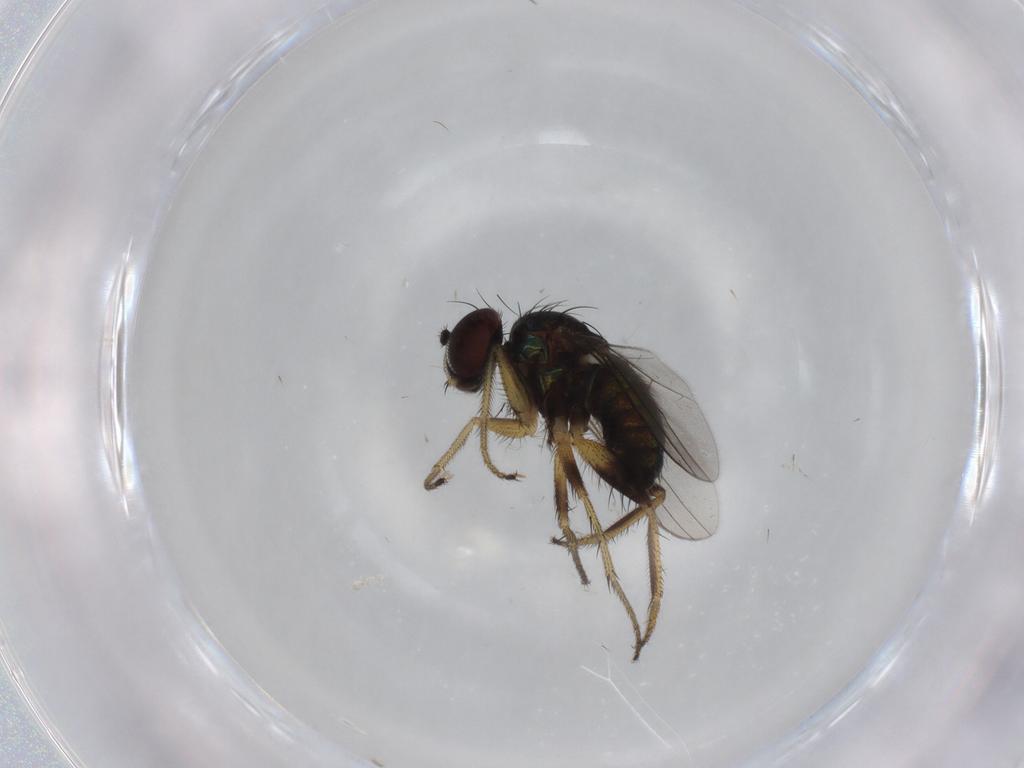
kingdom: Animalia
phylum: Arthropoda
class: Insecta
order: Diptera
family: Dolichopodidae
